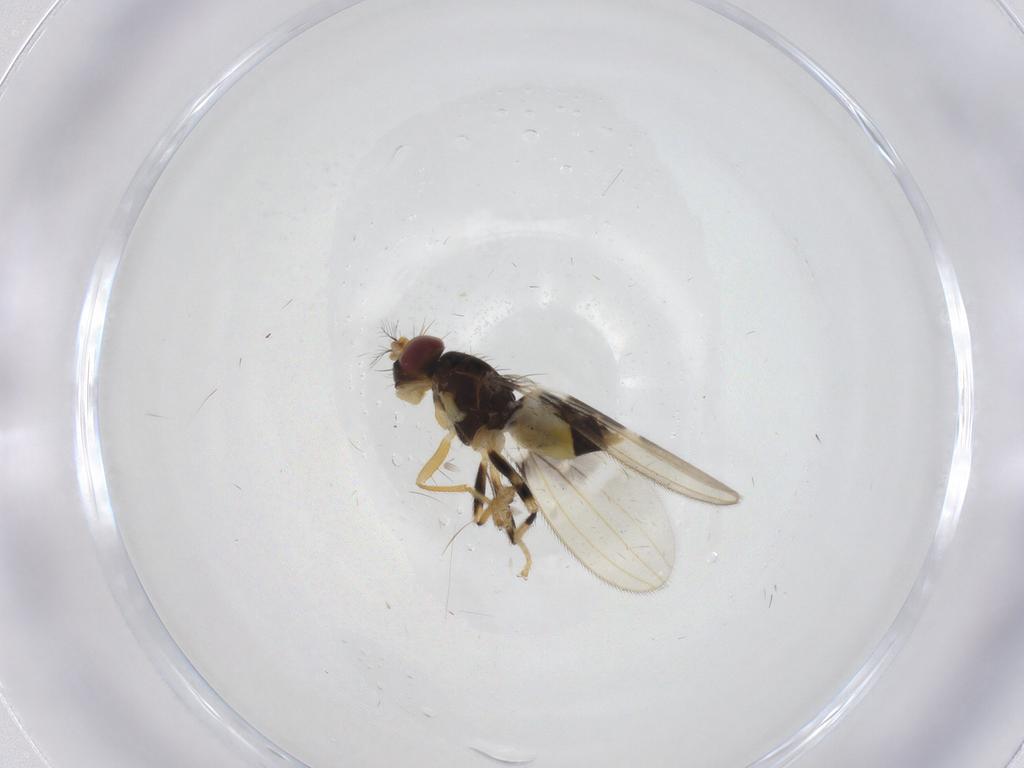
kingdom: Animalia
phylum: Arthropoda
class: Insecta
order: Diptera
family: Periscelididae
